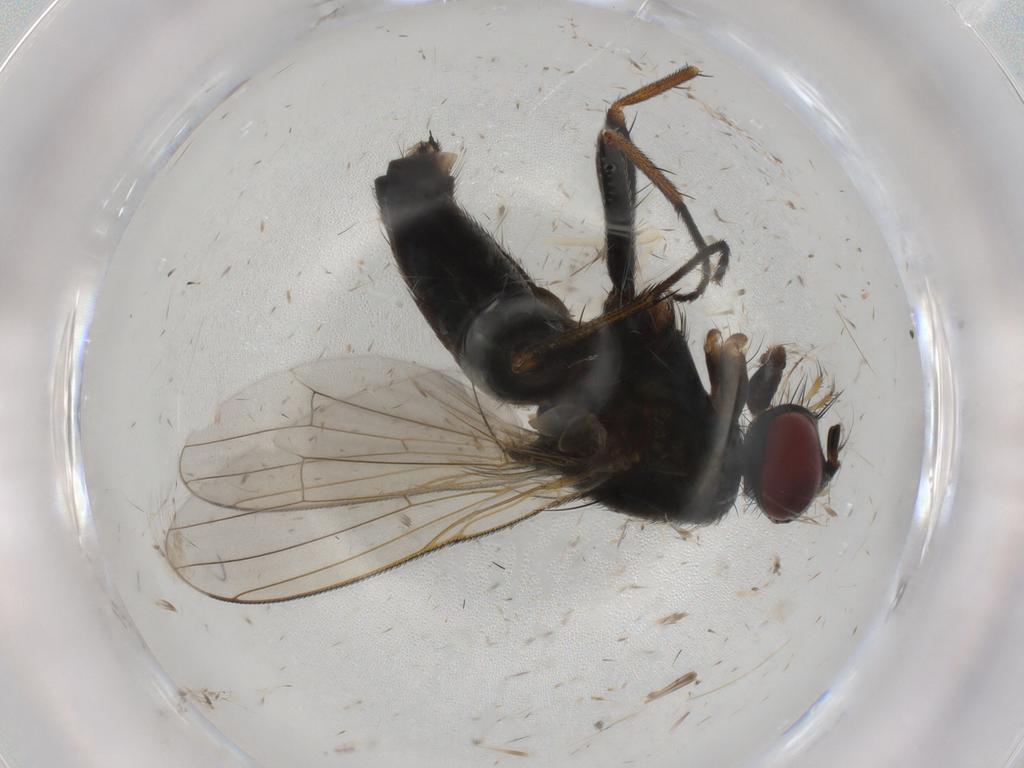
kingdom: Animalia
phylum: Arthropoda
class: Insecta
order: Diptera
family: Muscidae
